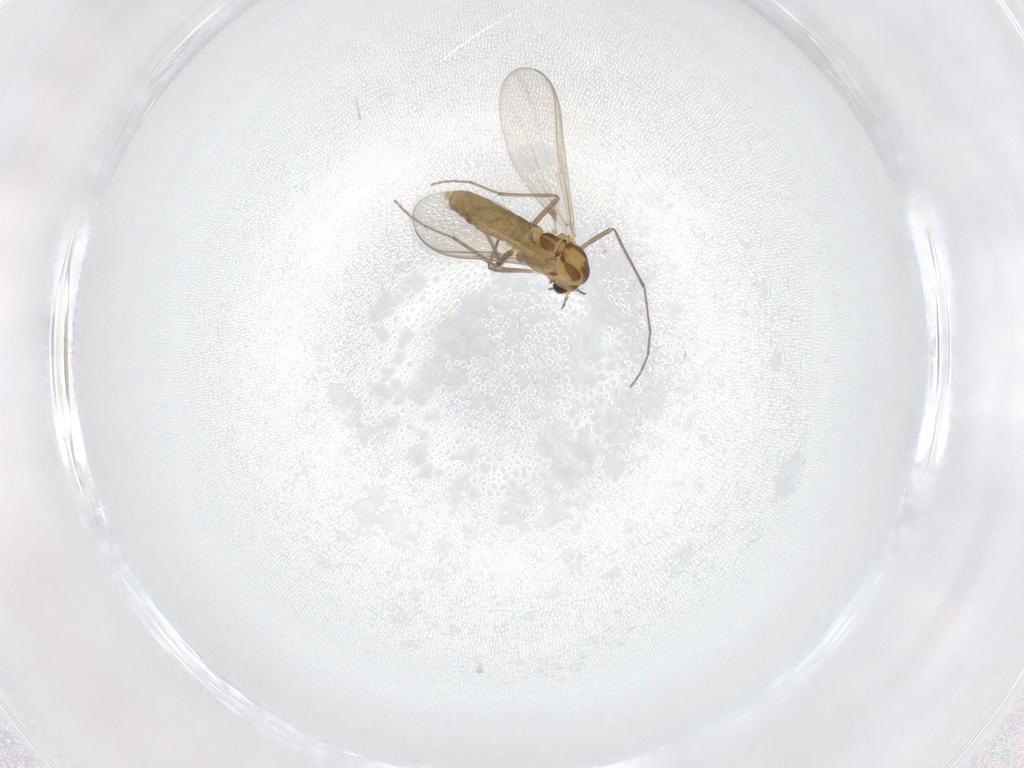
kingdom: Animalia
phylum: Arthropoda
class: Insecta
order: Diptera
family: Chironomidae
